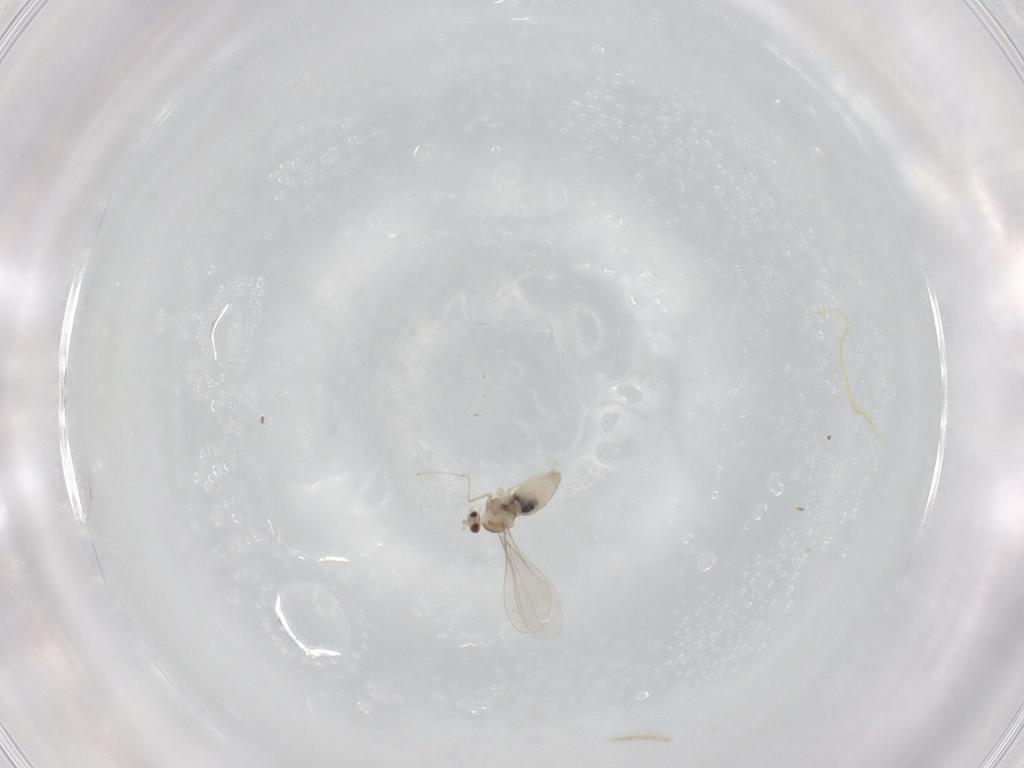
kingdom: Animalia
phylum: Arthropoda
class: Insecta
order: Diptera
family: Cecidomyiidae
